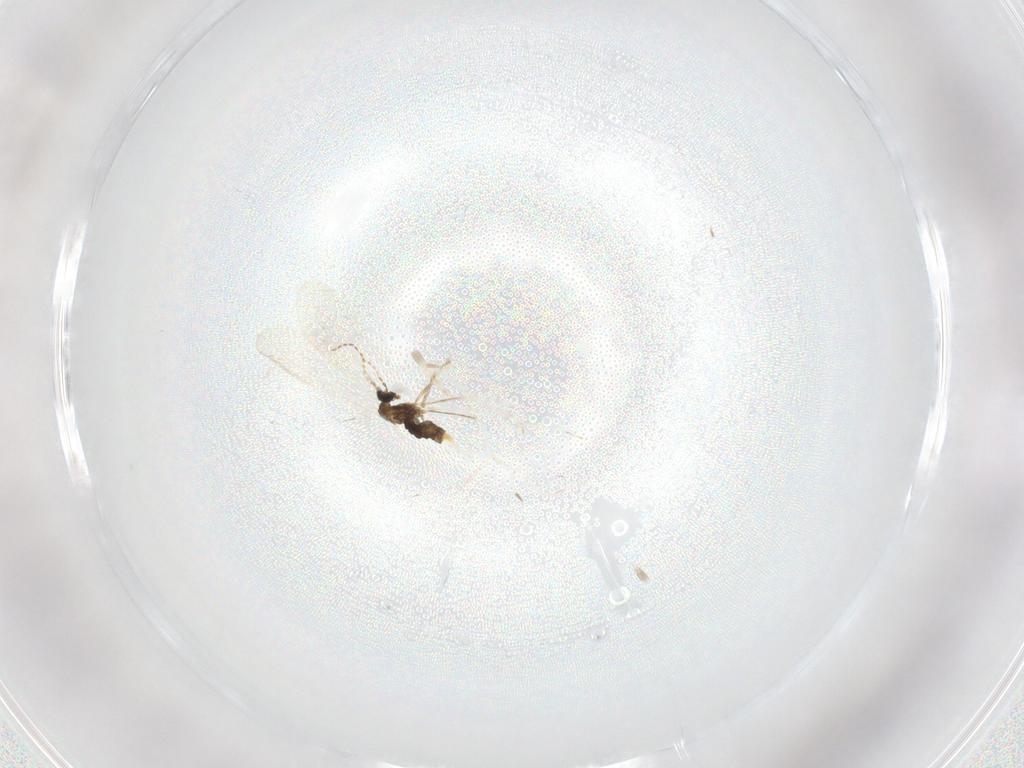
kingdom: Animalia
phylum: Arthropoda
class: Insecta
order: Diptera
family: Cecidomyiidae
